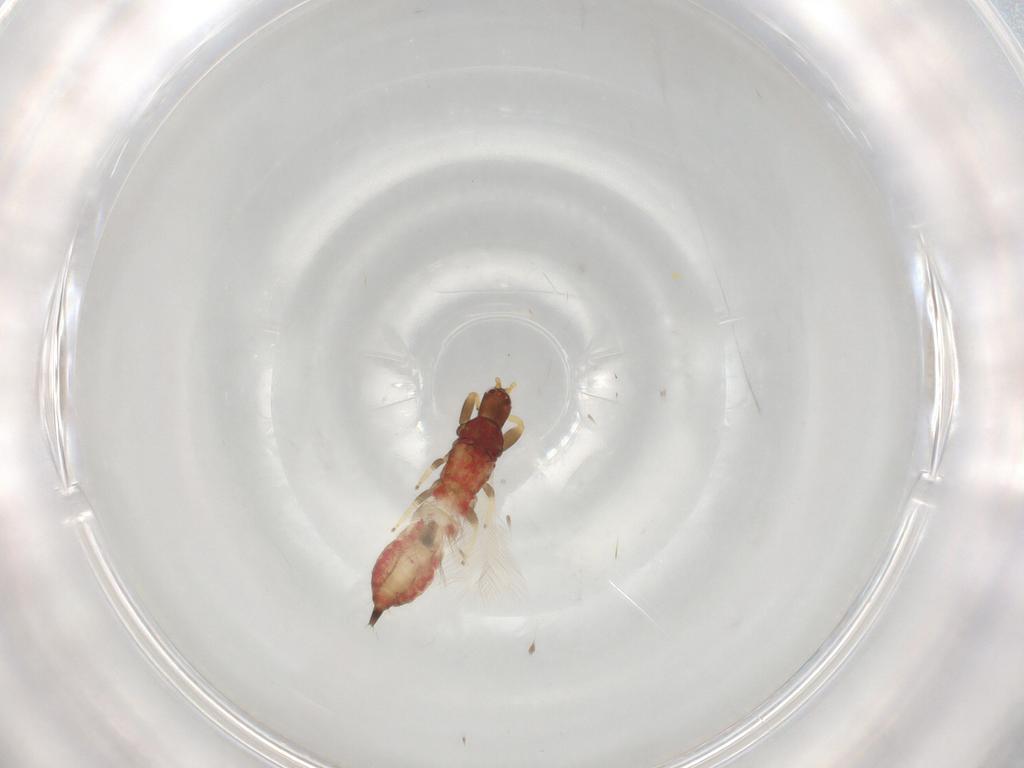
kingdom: Animalia
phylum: Arthropoda
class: Insecta
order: Thysanoptera
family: Phlaeothripidae
